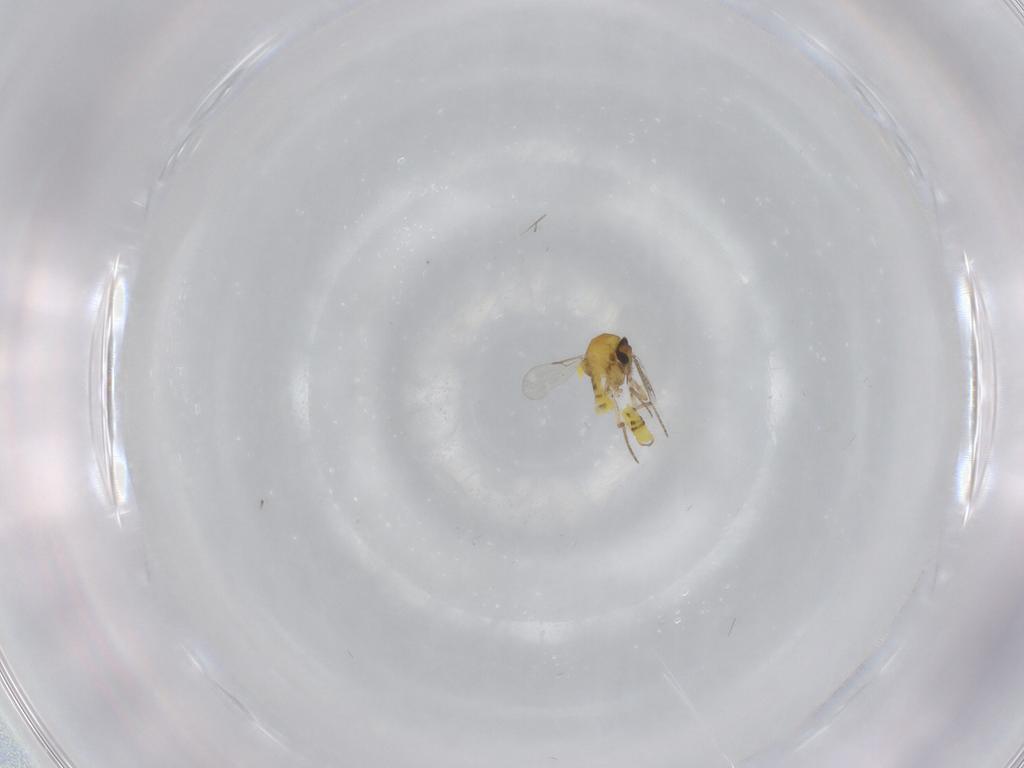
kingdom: Animalia
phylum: Arthropoda
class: Insecta
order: Diptera
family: Ceratopogonidae
